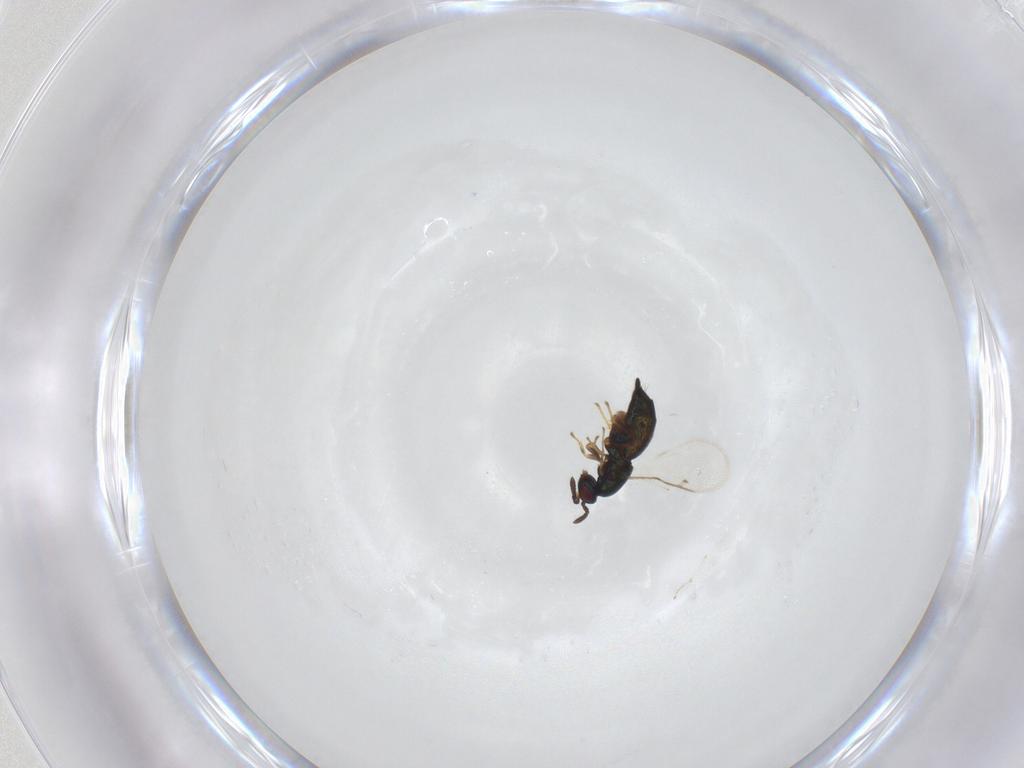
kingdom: Animalia
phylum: Arthropoda
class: Insecta
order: Hymenoptera
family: Pteromalidae
